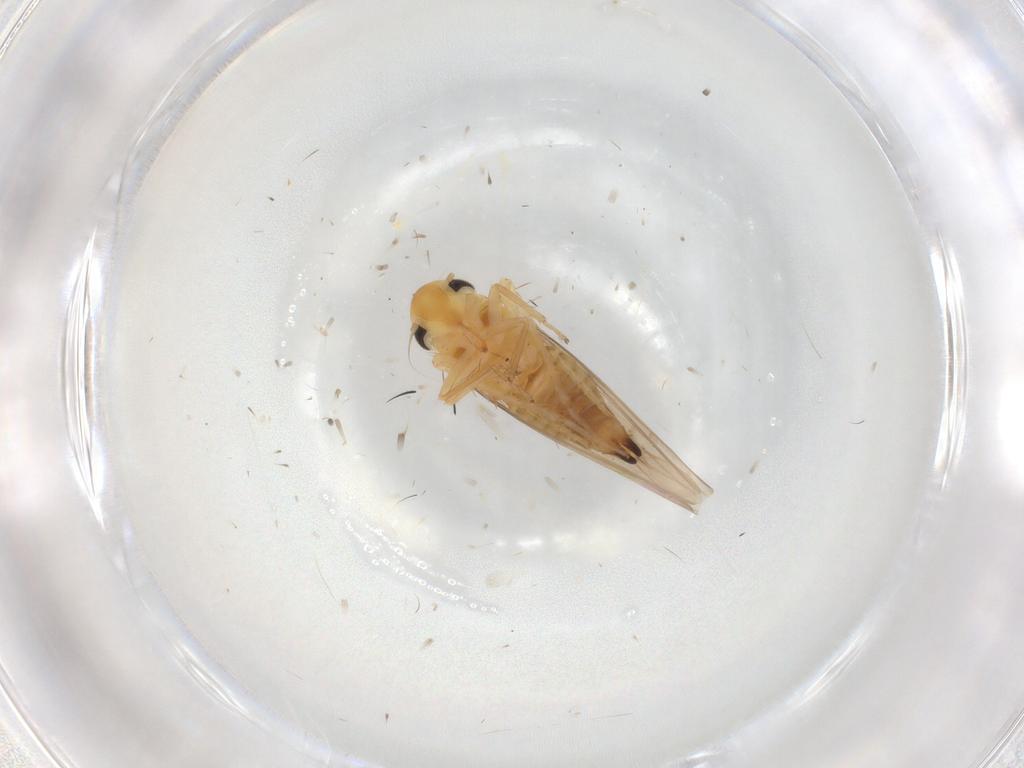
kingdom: Animalia
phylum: Arthropoda
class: Insecta
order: Hemiptera
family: Cicadellidae
